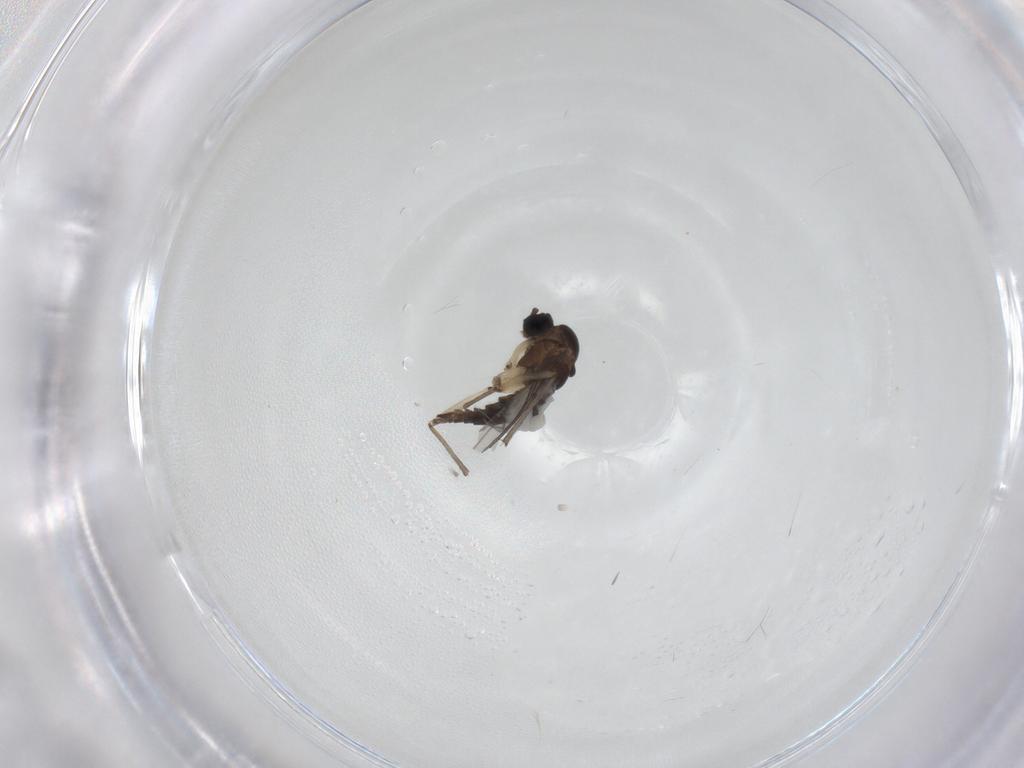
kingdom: Animalia
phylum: Arthropoda
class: Insecta
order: Diptera
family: Sciaridae
